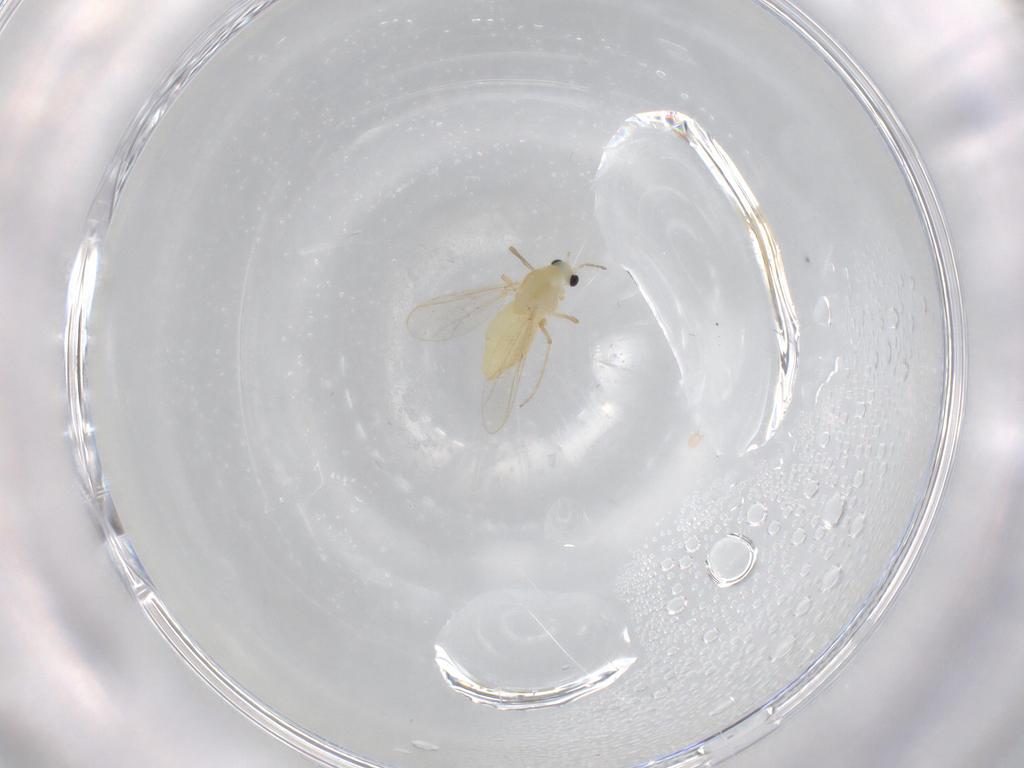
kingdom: Animalia
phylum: Arthropoda
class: Insecta
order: Diptera
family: Chironomidae
